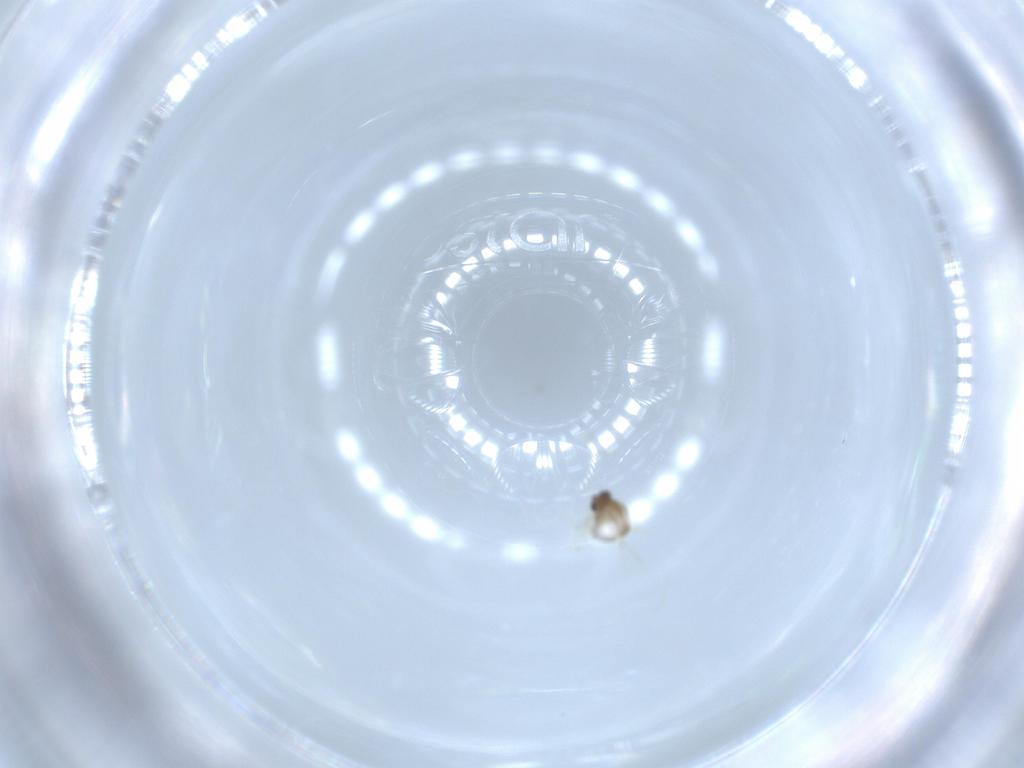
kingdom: Animalia
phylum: Arthropoda
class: Insecta
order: Diptera
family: Chironomidae
